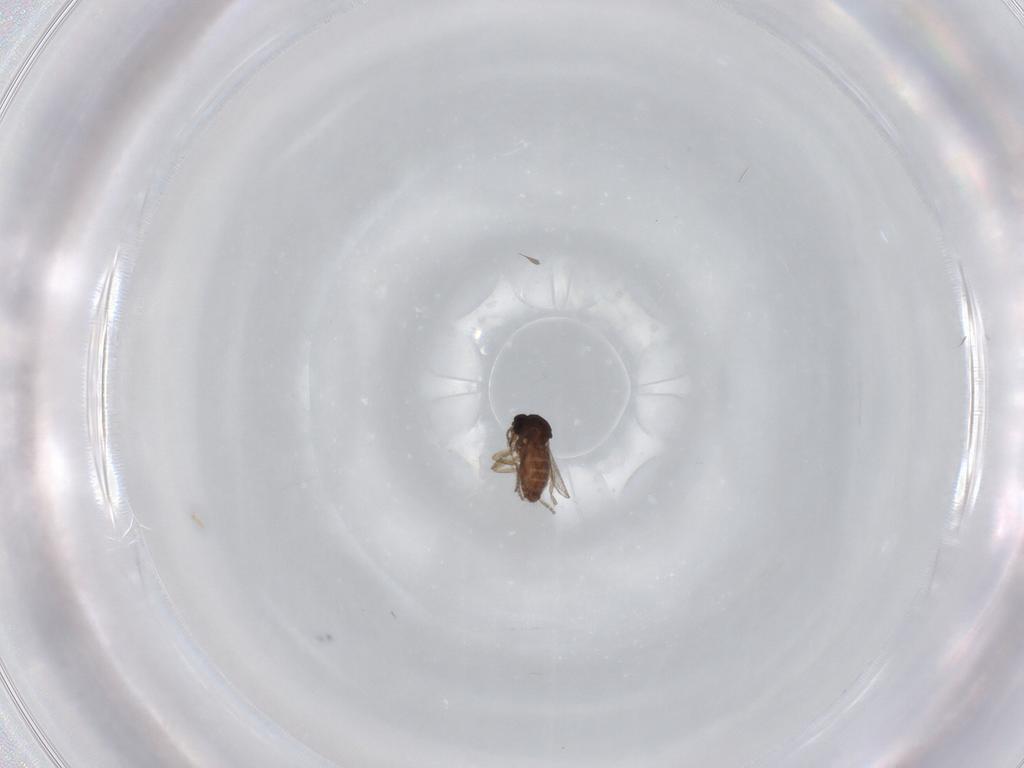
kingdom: Animalia
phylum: Arthropoda
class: Insecta
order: Diptera
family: Ceratopogonidae
